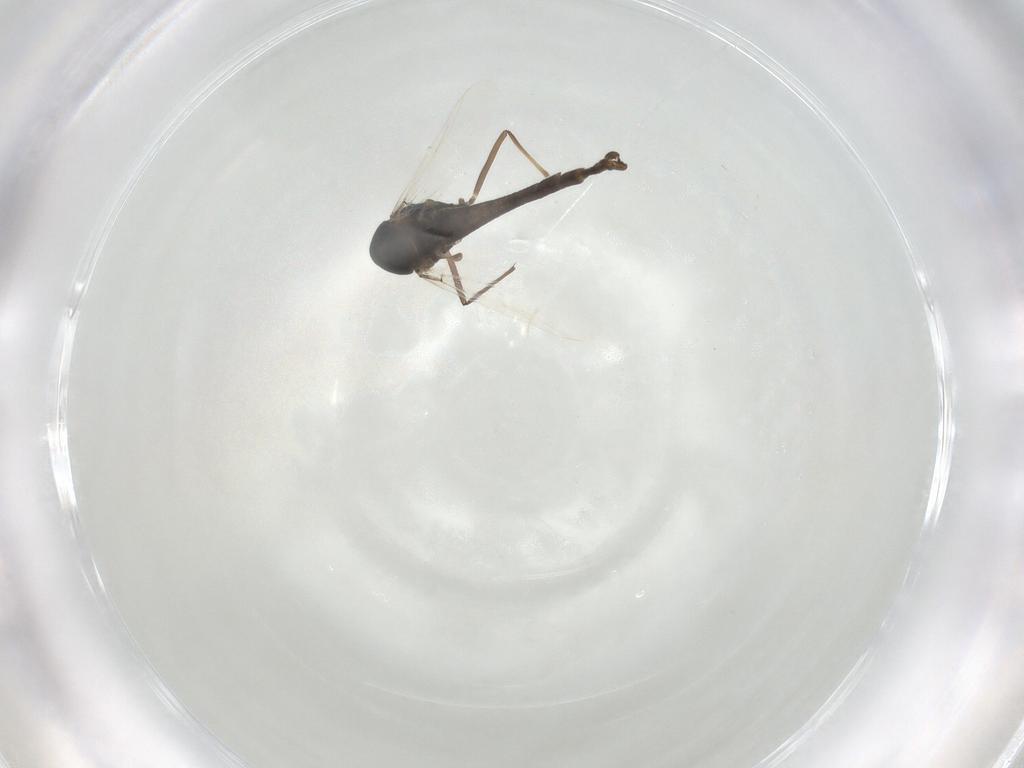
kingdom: Animalia
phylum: Arthropoda
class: Insecta
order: Diptera
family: Chironomidae
